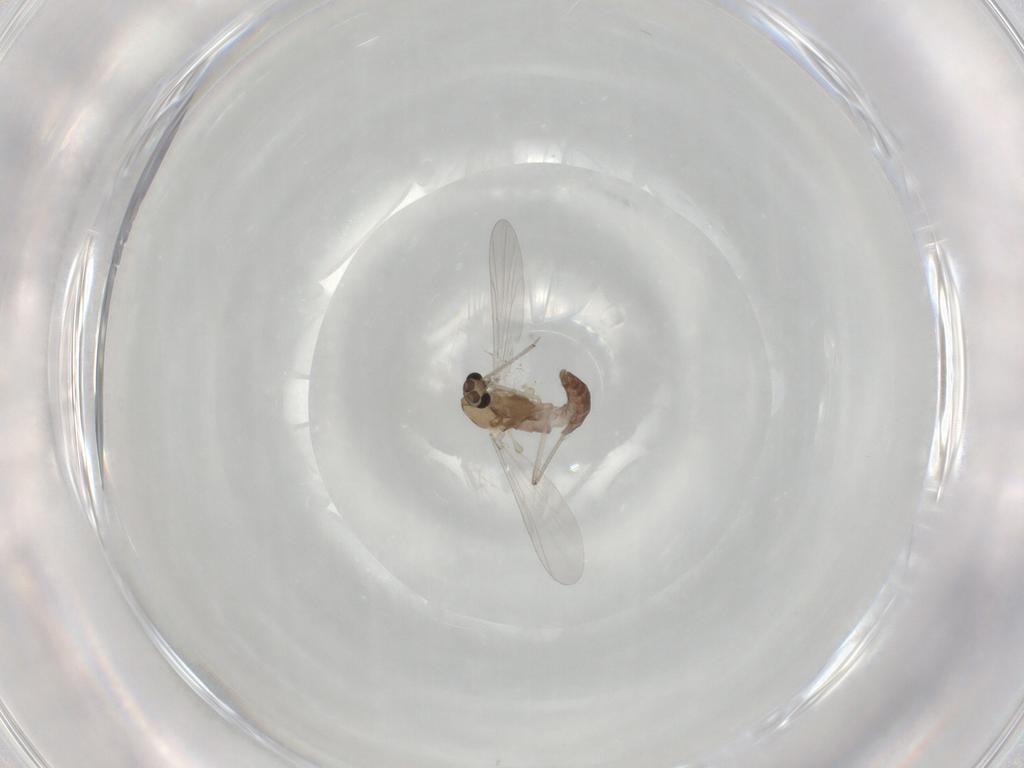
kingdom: Animalia
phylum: Arthropoda
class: Insecta
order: Diptera
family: Chironomidae
